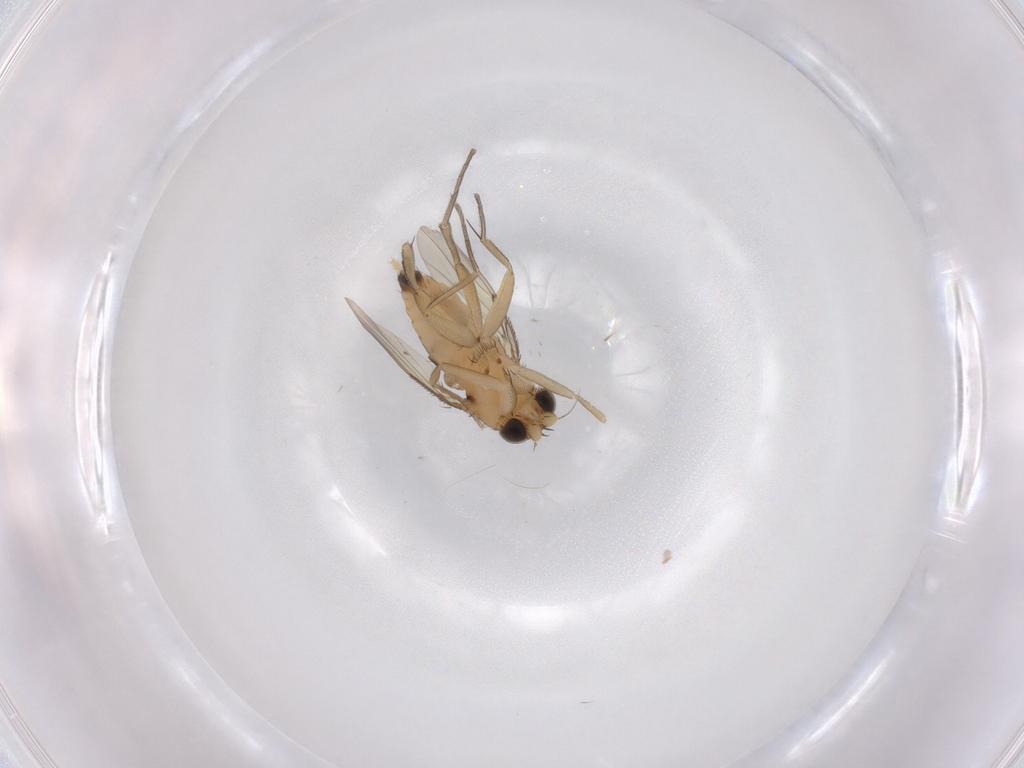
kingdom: Animalia
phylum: Arthropoda
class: Insecta
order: Diptera
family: Phoridae
